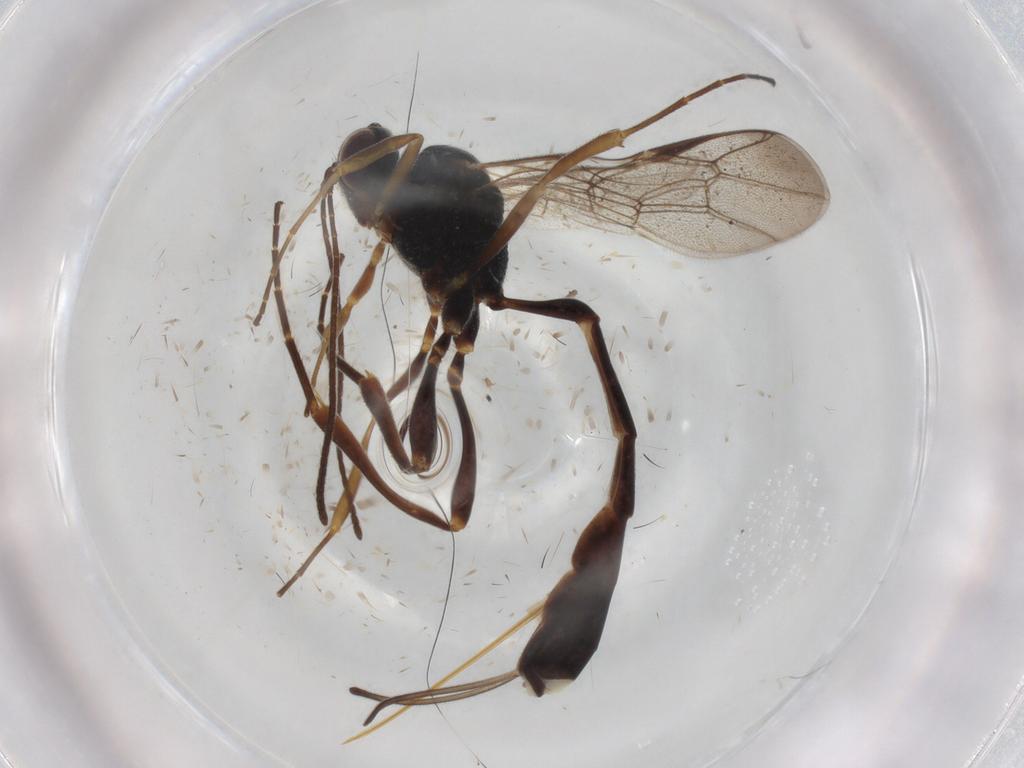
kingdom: Animalia
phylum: Arthropoda
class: Insecta
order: Hymenoptera
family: Ichneumonidae
